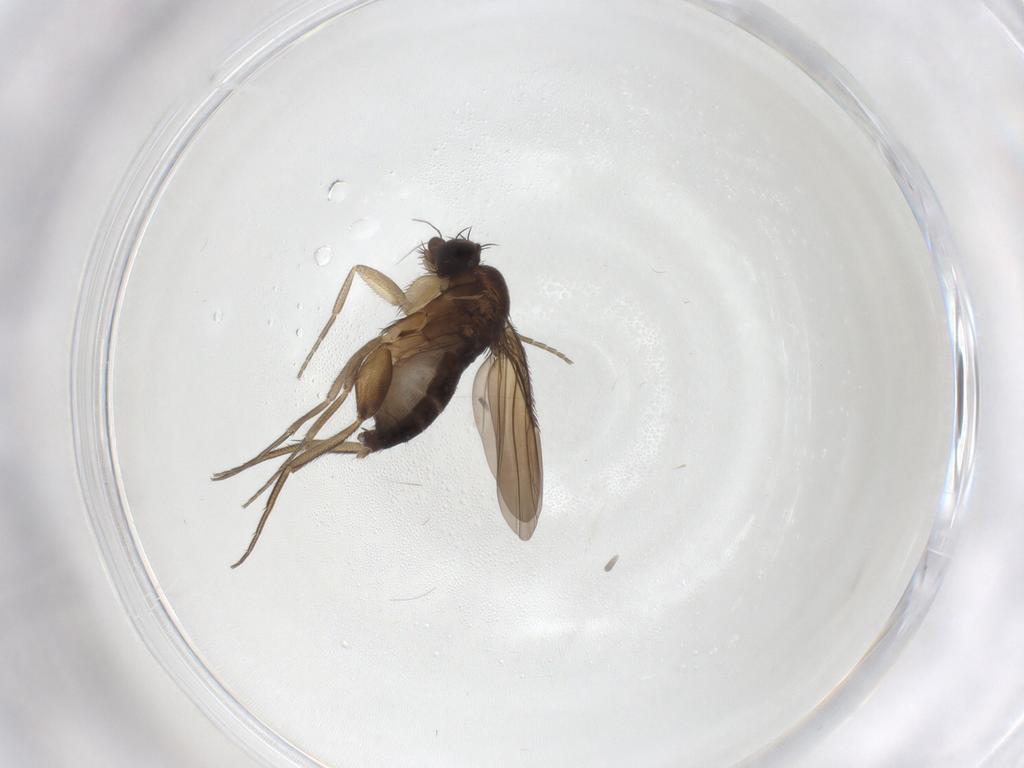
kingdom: Animalia
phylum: Arthropoda
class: Insecta
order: Diptera
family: Phoridae
